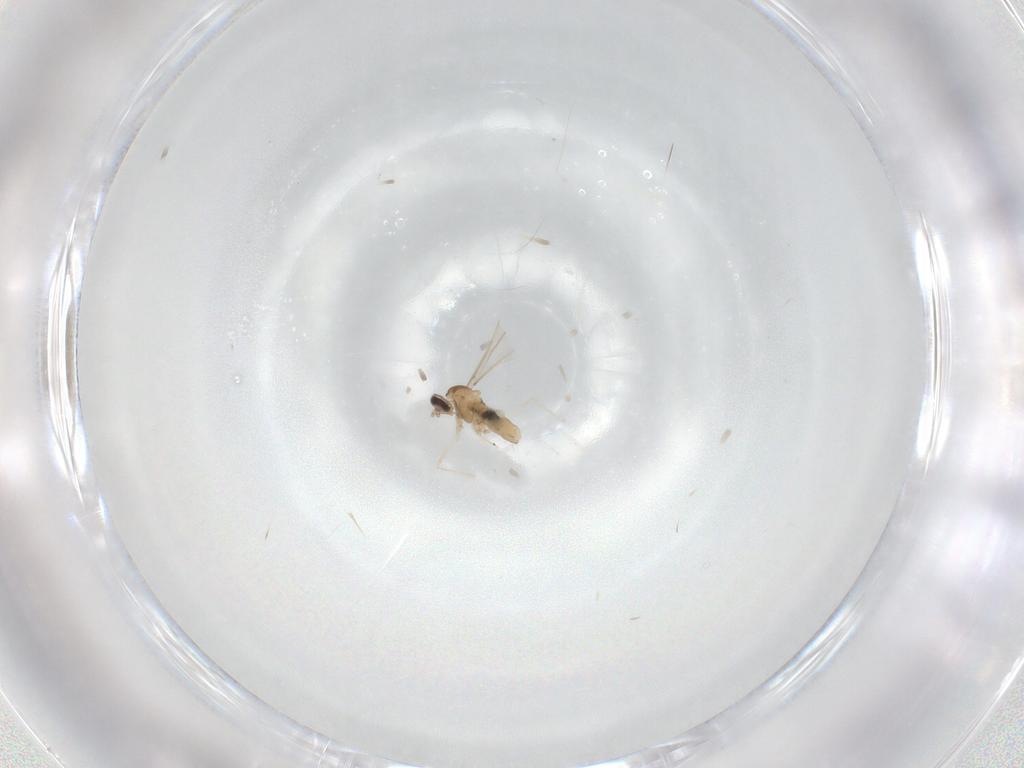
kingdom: Animalia
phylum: Arthropoda
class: Insecta
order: Diptera
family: Cecidomyiidae
